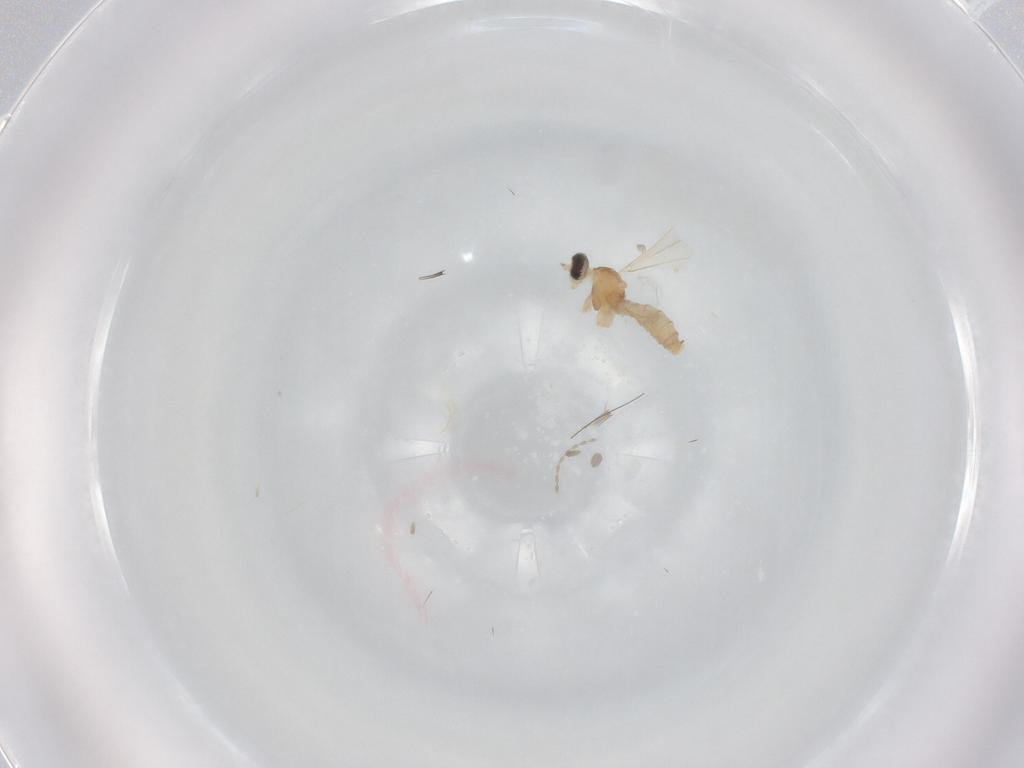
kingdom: Animalia
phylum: Arthropoda
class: Insecta
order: Diptera
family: Cecidomyiidae
